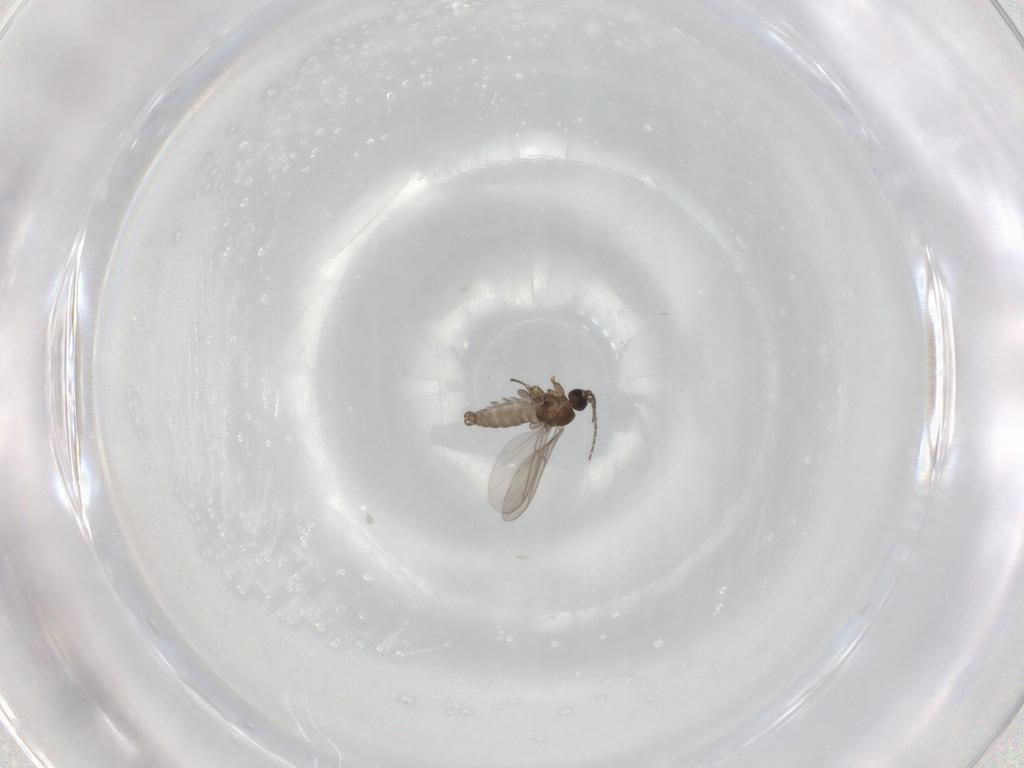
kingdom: Animalia
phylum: Arthropoda
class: Insecta
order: Diptera
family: Sciaridae
